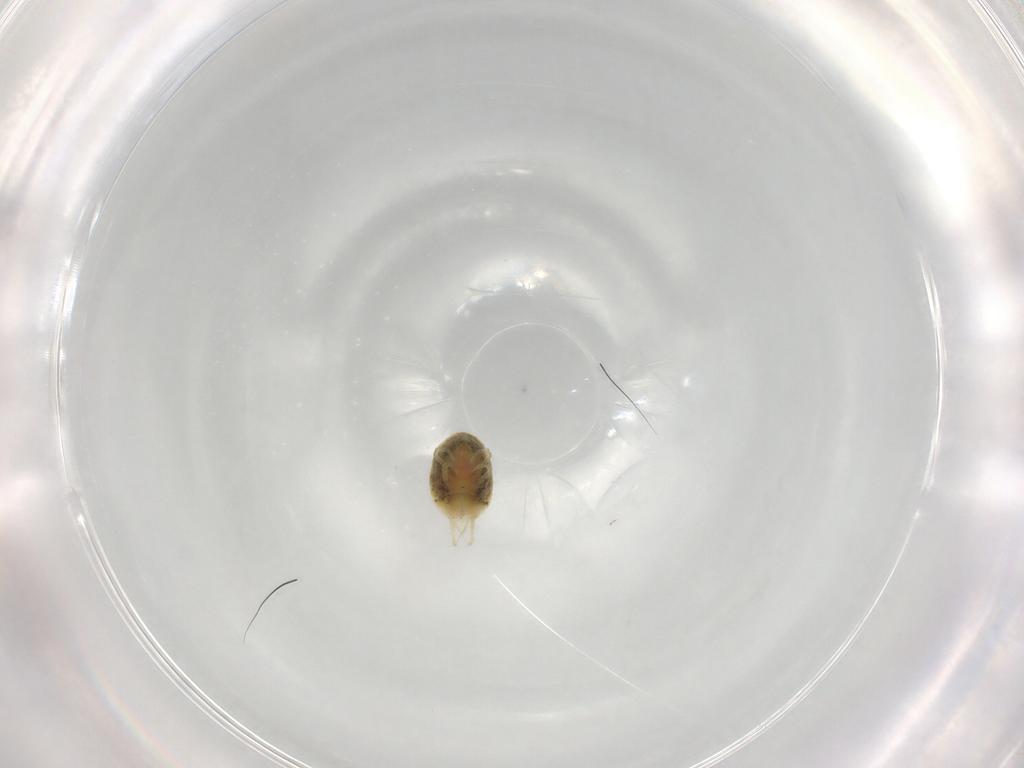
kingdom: Animalia
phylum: Arthropoda
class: Arachnida
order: Trombidiformes
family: Tetranychidae
